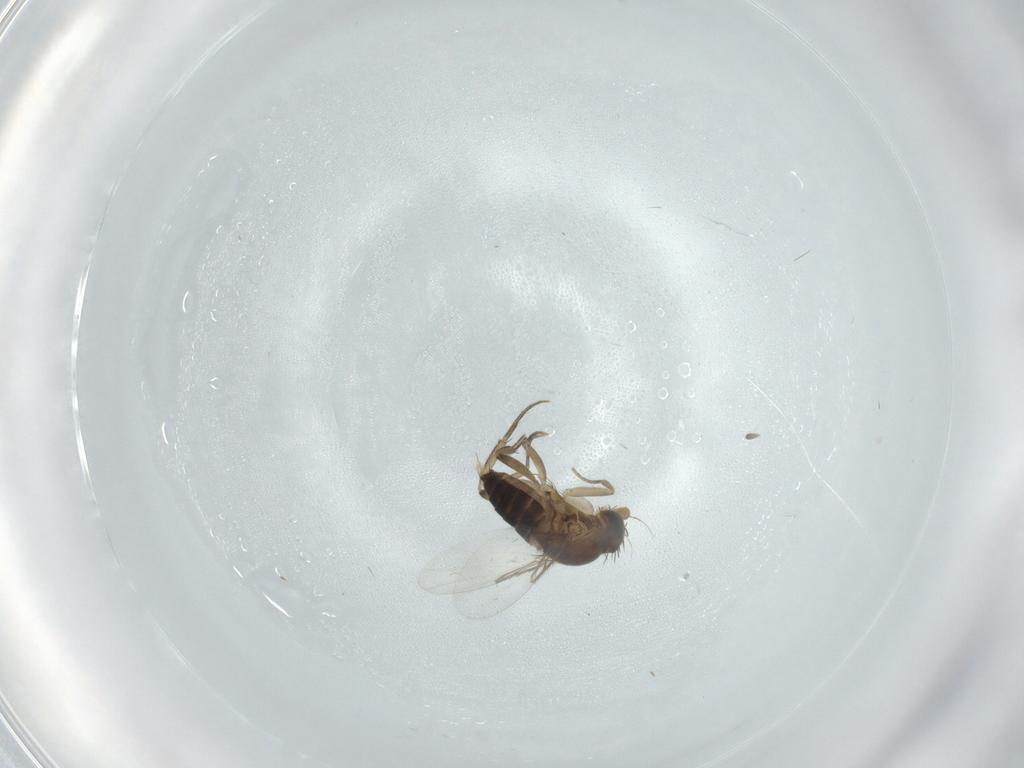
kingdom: Animalia
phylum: Arthropoda
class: Insecta
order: Diptera
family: Phoridae
